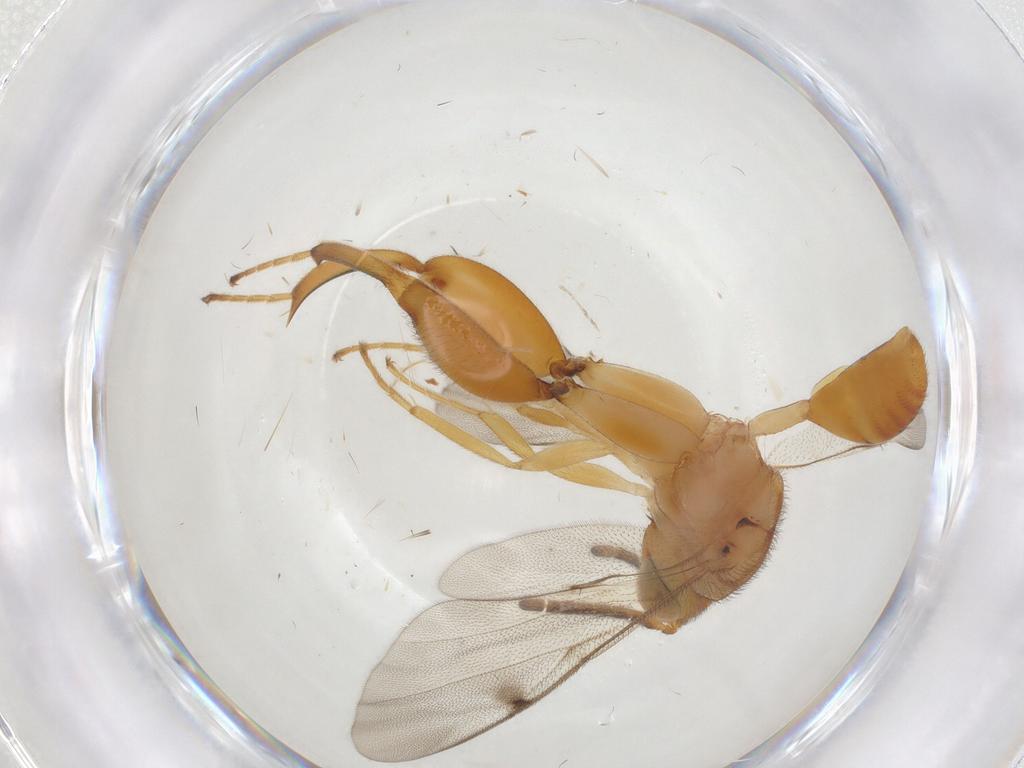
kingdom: Animalia
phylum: Arthropoda
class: Insecta
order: Hymenoptera
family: Chalcididae
